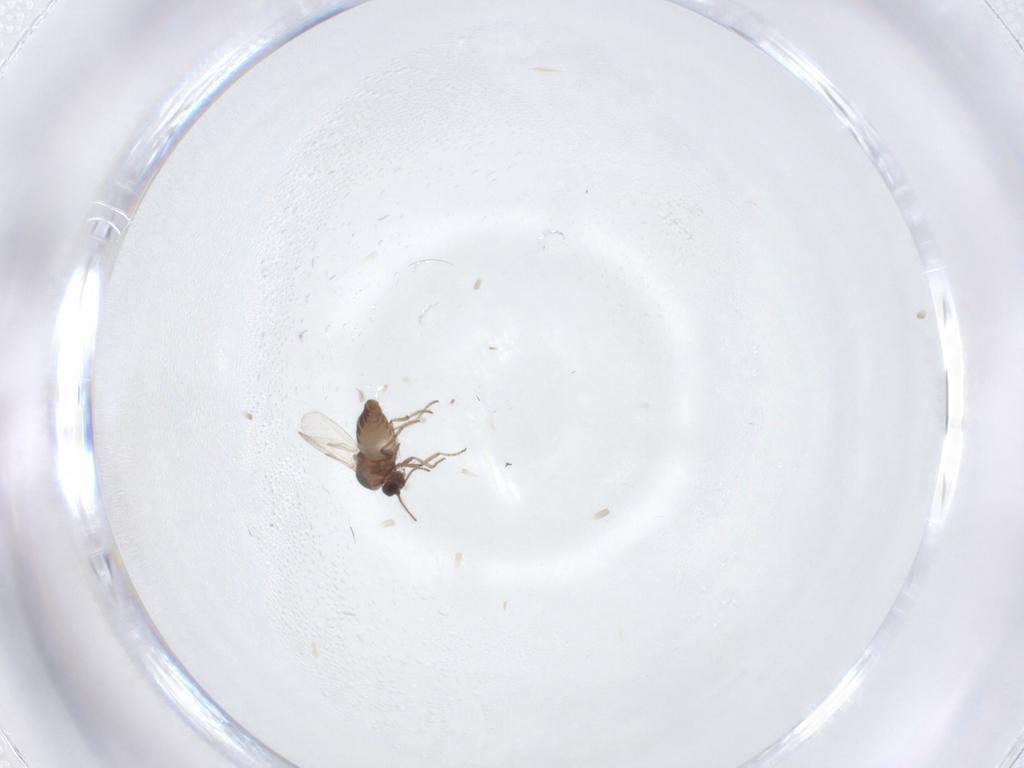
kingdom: Animalia
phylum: Arthropoda
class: Insecta
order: Diptera
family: Ceratopogonidae
